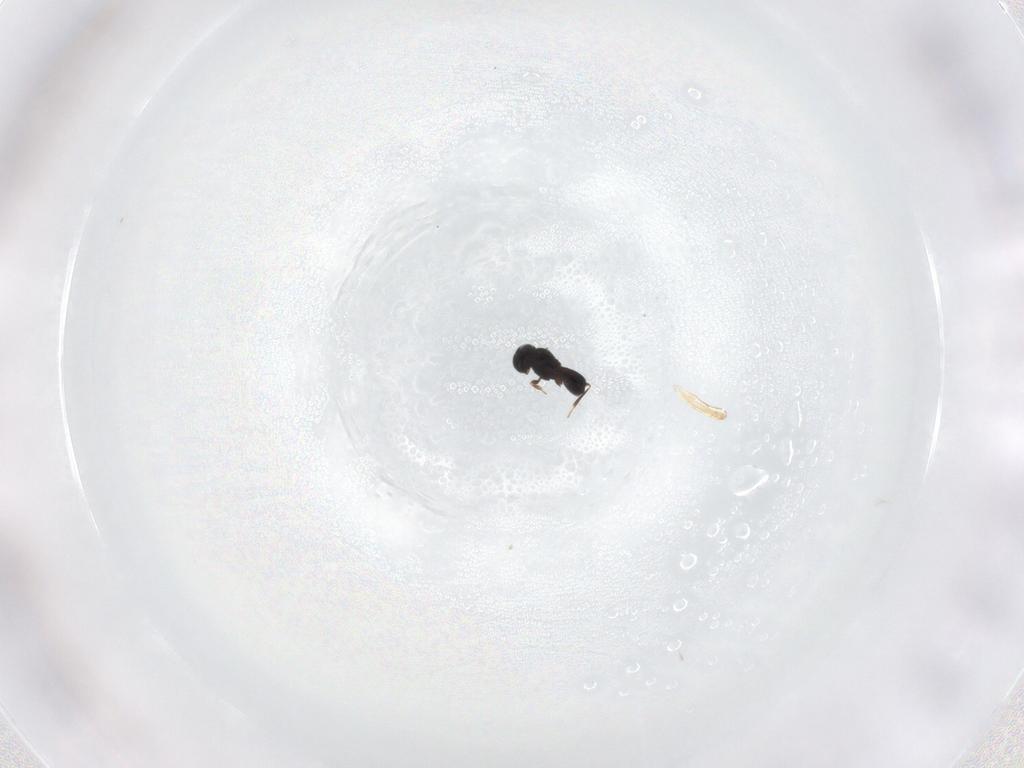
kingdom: Animalia
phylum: Arthropoda
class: Insecta
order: Hymenoptera
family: Scelionidae
